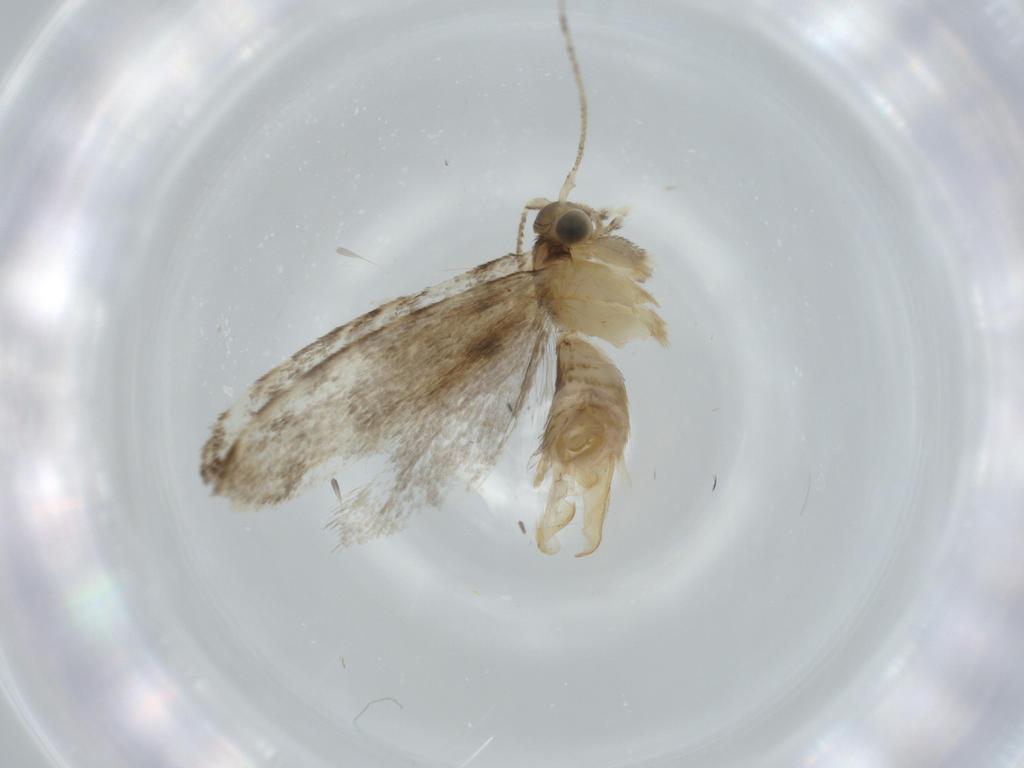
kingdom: Animalia
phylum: Arthropoda
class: Insecta
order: Lepidoptera
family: Tineidae
